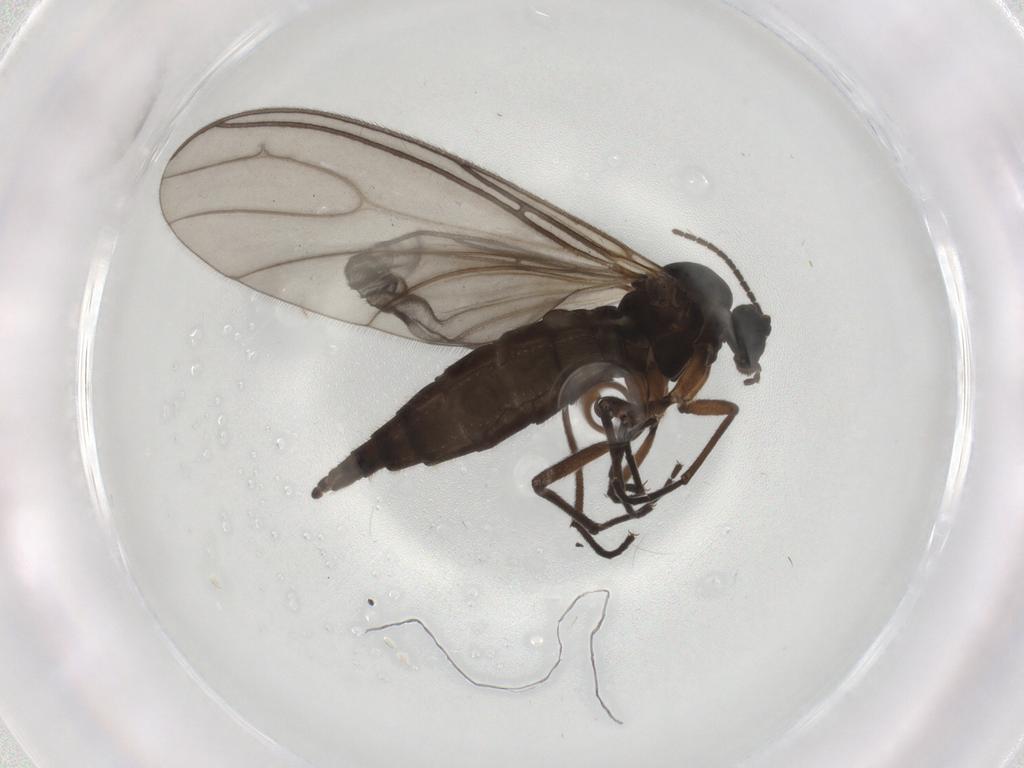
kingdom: Animalia
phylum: Arthropoda
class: Insecta
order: Diptera
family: Sciaridae
